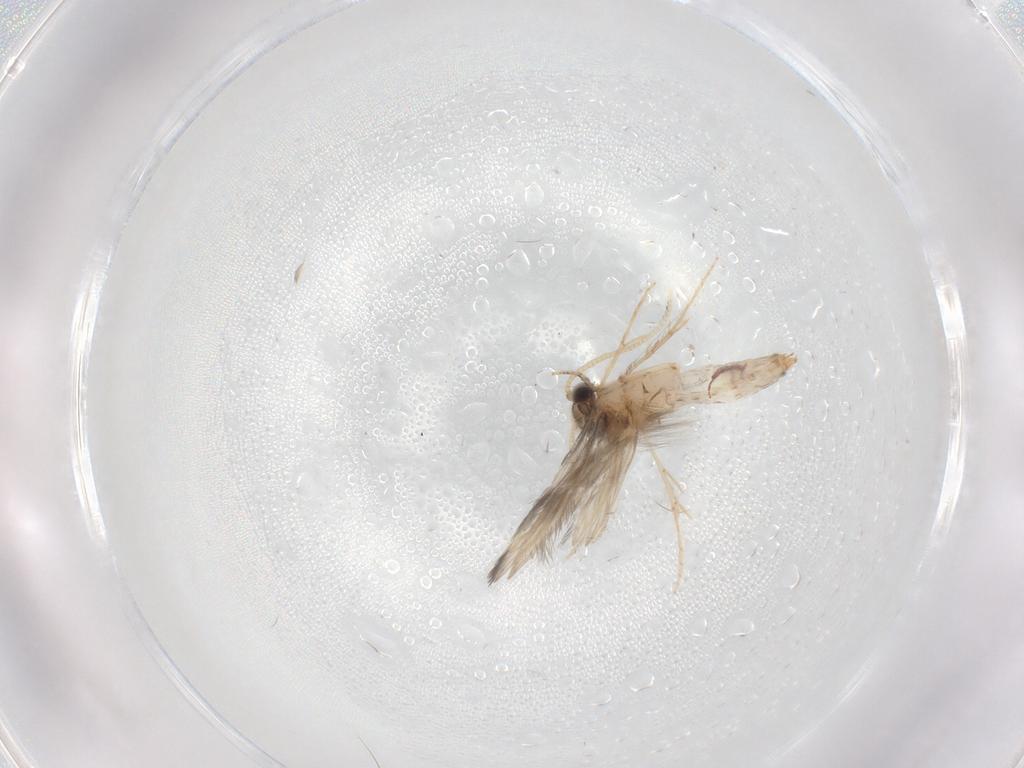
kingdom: Animalia
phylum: Arthropoda
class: Insecta
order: Trichoptera
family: Hydroptilidae
